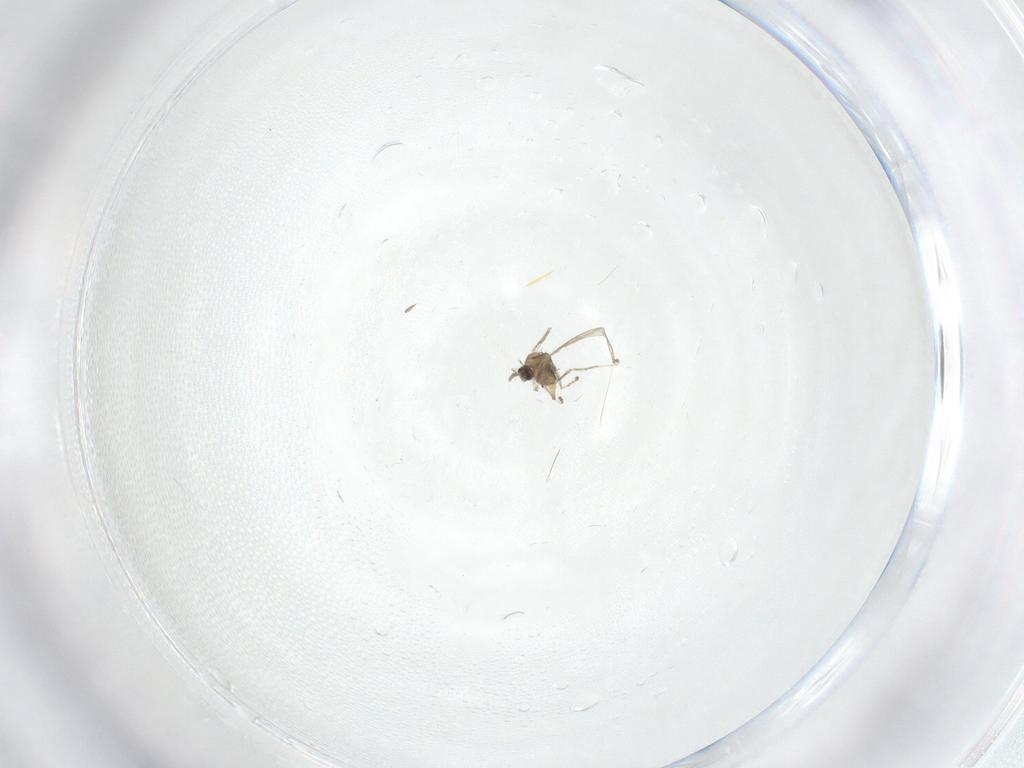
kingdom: Animalia
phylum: Arthropoda
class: Insecta
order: Diptera
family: Cecidomyiidae
